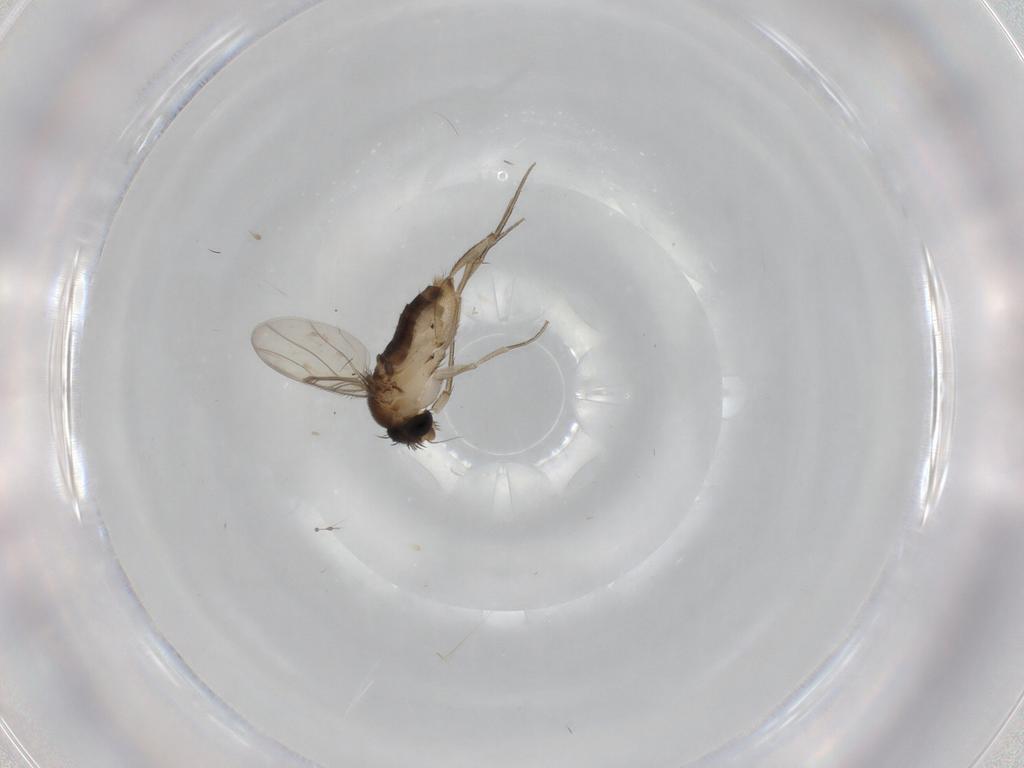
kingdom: Animalia
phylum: Arthropoda
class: Insecta
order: Diptera
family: Phoridae
